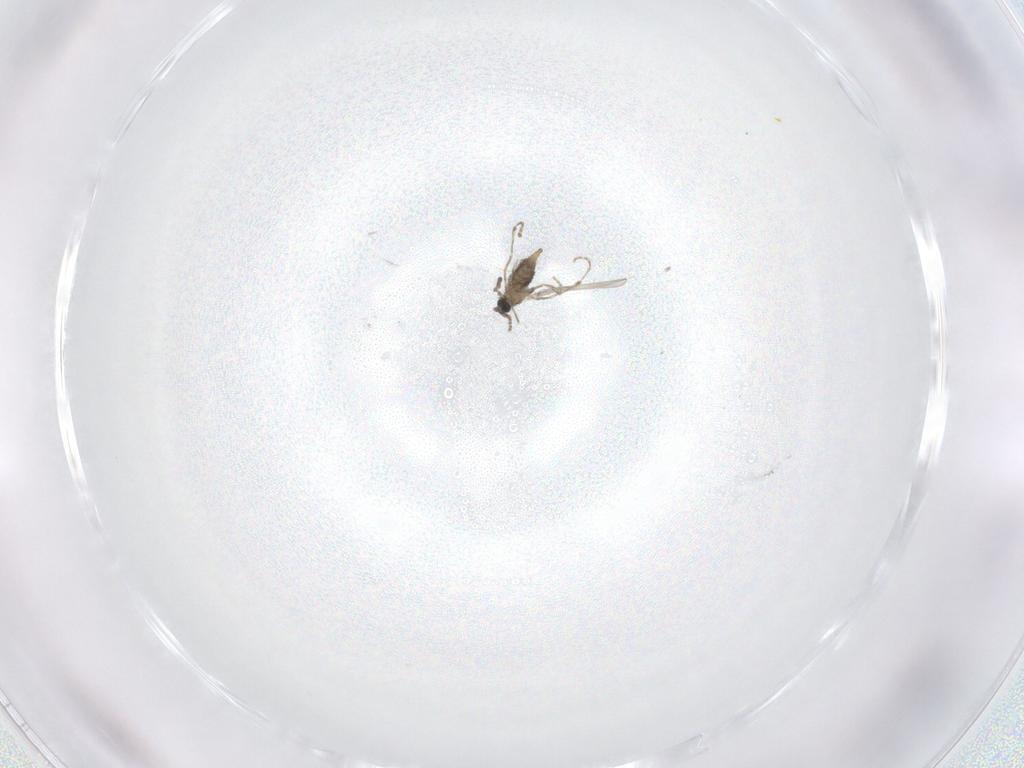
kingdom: Animalia
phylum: Arthropoda
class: Insecta
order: Diptera
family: Cecidomyiidae
